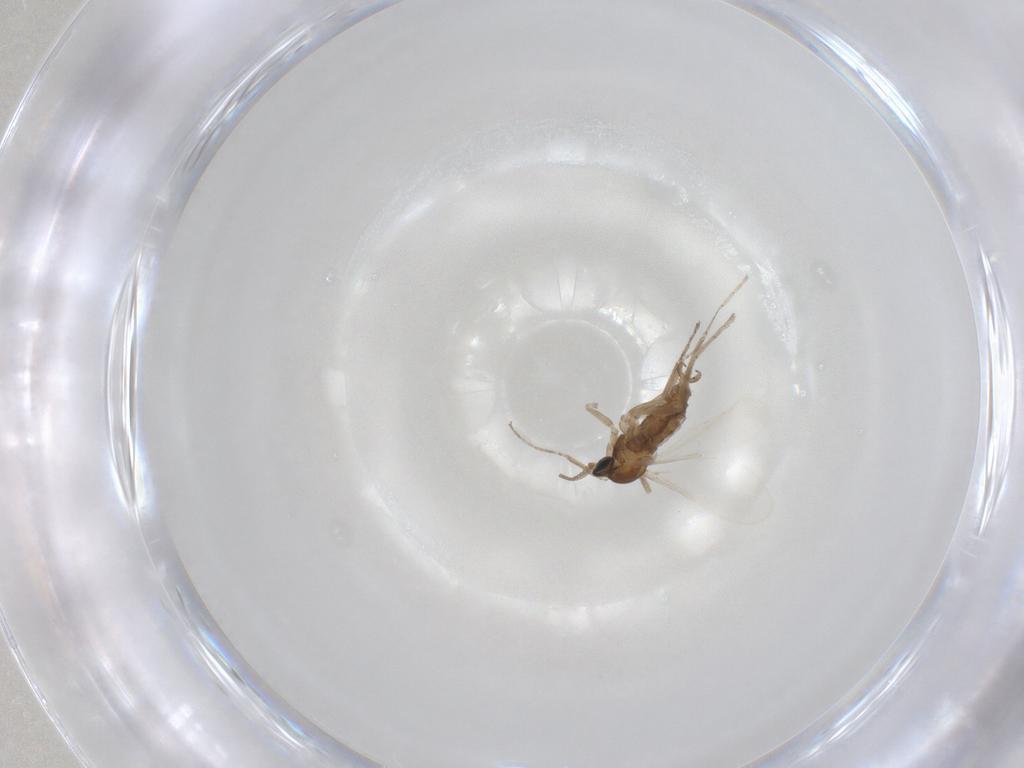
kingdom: Animalia
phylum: Arthropoda
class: Insecta
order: Diptera
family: Cecidomyiidae
